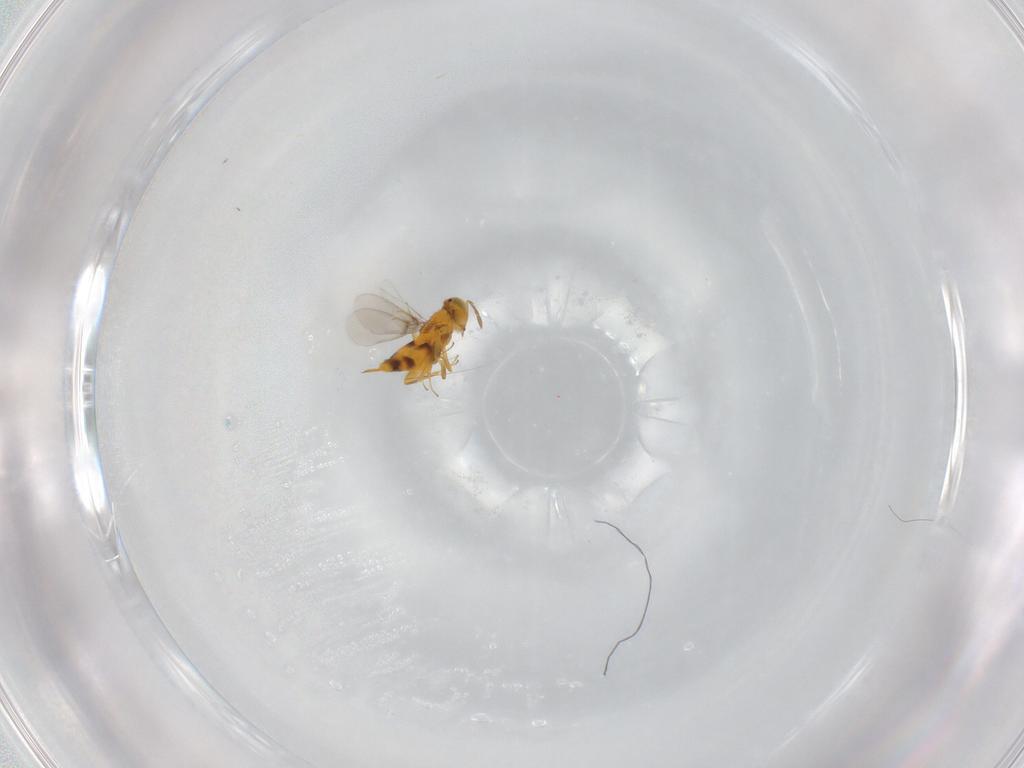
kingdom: Animalia
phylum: Arthropoda
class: Insecta
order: Hymenoptera
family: Aphelinidae
